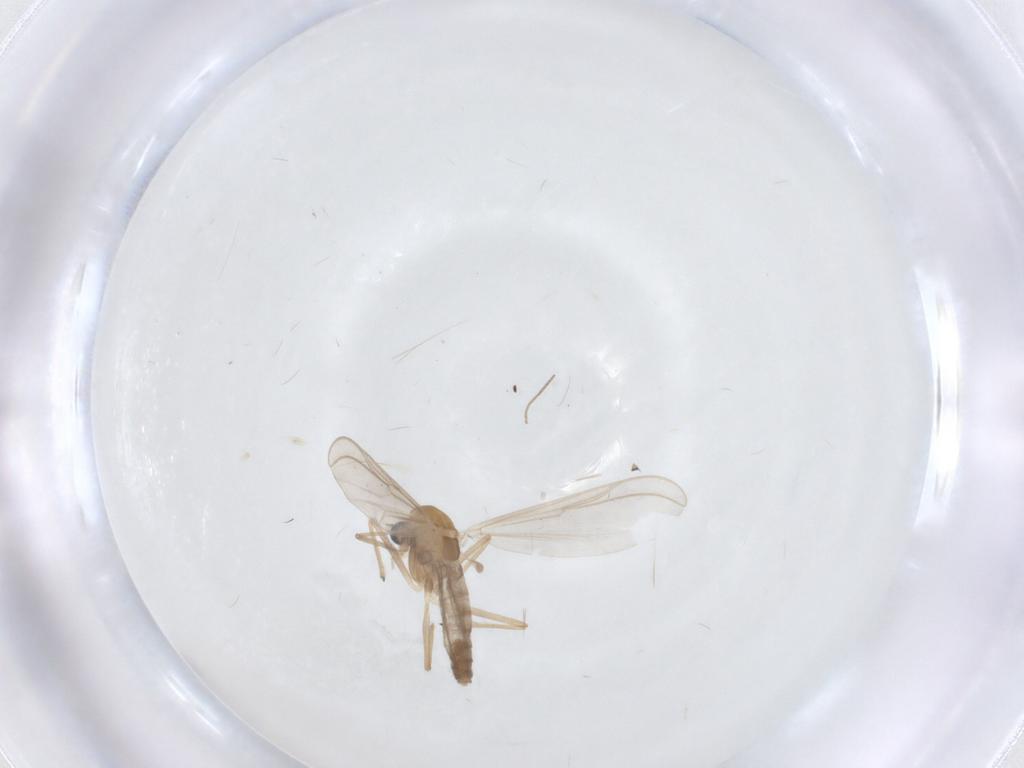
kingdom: Animalia
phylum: Arthropoda
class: Insecta
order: Diptera
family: Chironomidae
